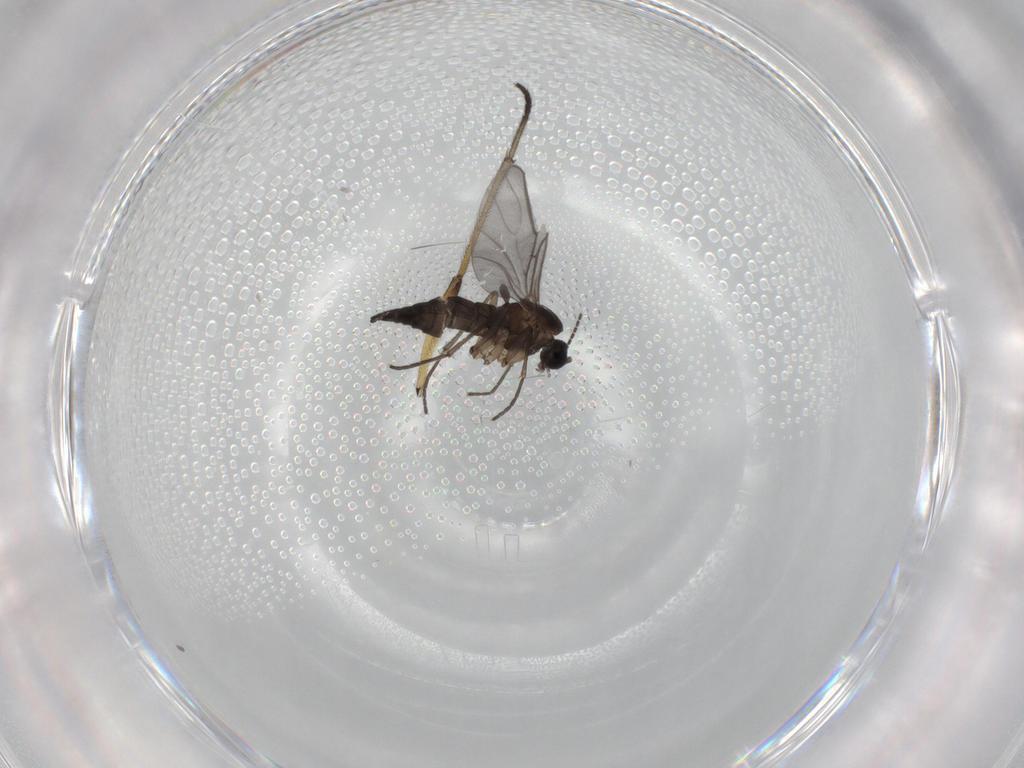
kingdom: Animalia
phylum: Arthropoda
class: Insecta
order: Diptera
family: Sciaridae
